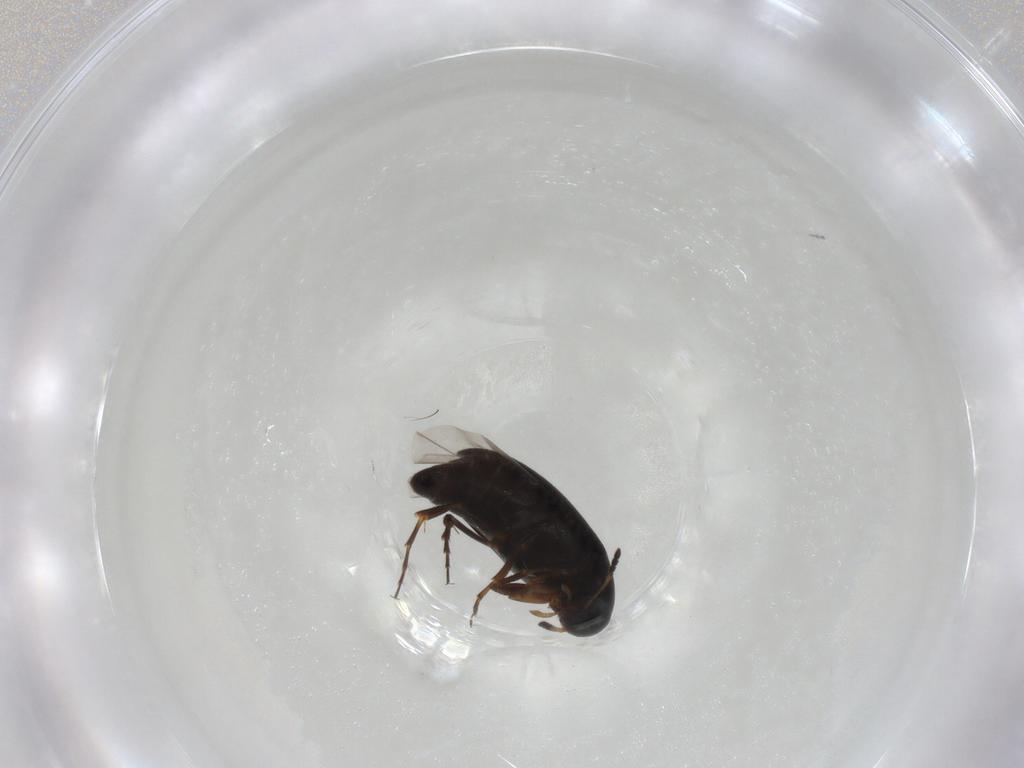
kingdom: Animalia
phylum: Arthropoda
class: Insecta
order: Coleoptera
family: Scraptiidae
